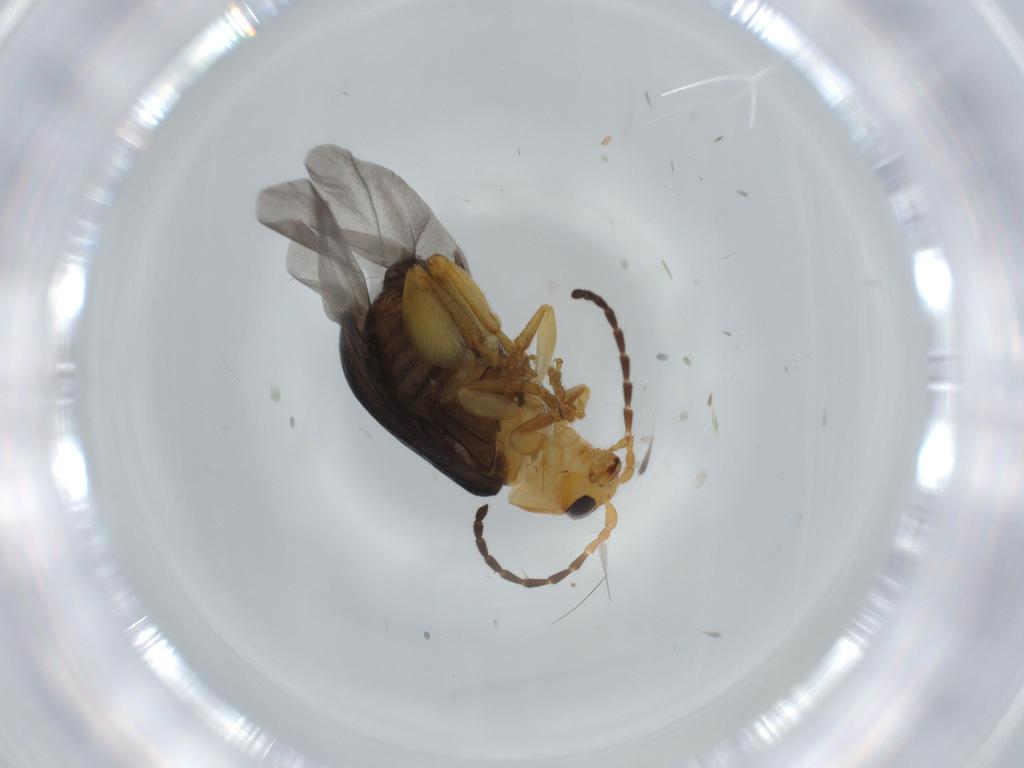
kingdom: Animalia
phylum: Arthropoda
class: Insecta
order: Coleoptera
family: Chrysomelidae
